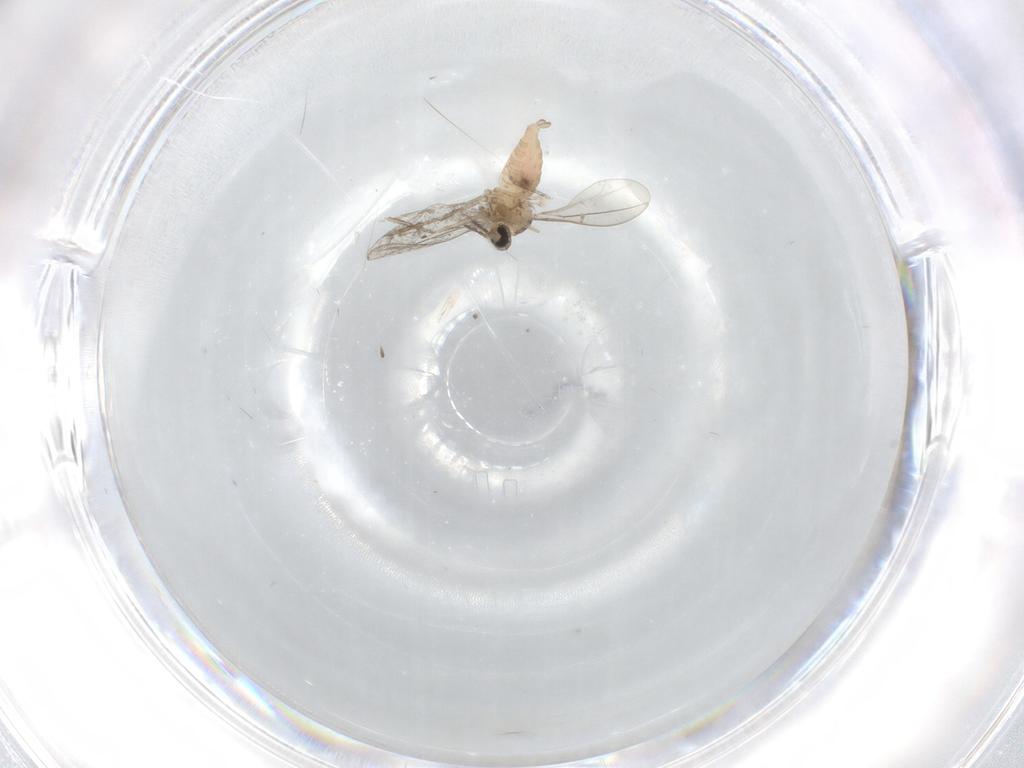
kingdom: Animalia
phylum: Arthropoda
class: Insecta
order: Diptera
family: Cecidomyiidae
